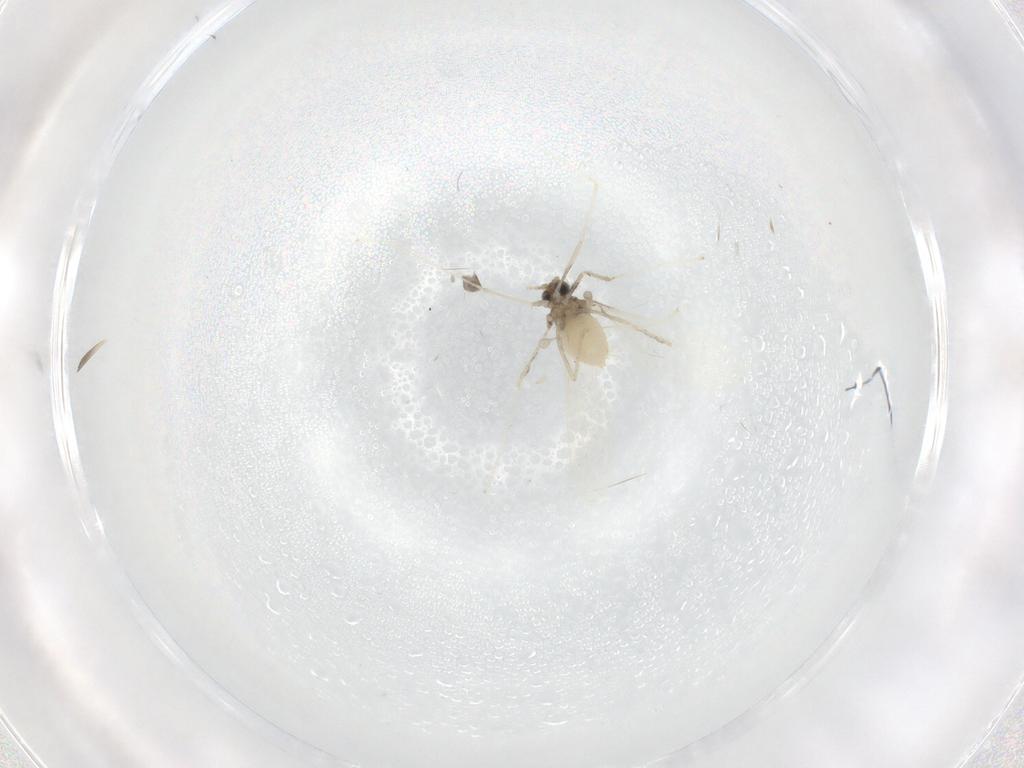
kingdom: Animalia
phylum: Arthropoda
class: Insecta
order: Diptera
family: Cecidomyiidae
